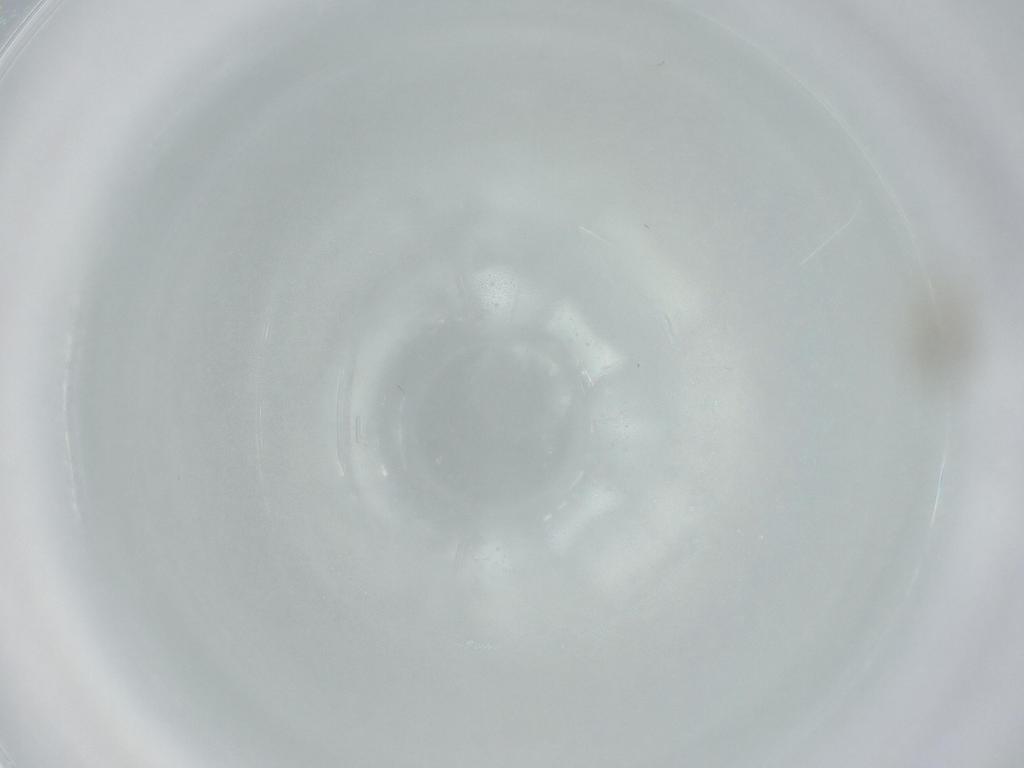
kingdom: Animalia
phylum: Arthropoda
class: Insecta
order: Diptera
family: Cecidomyiidae
